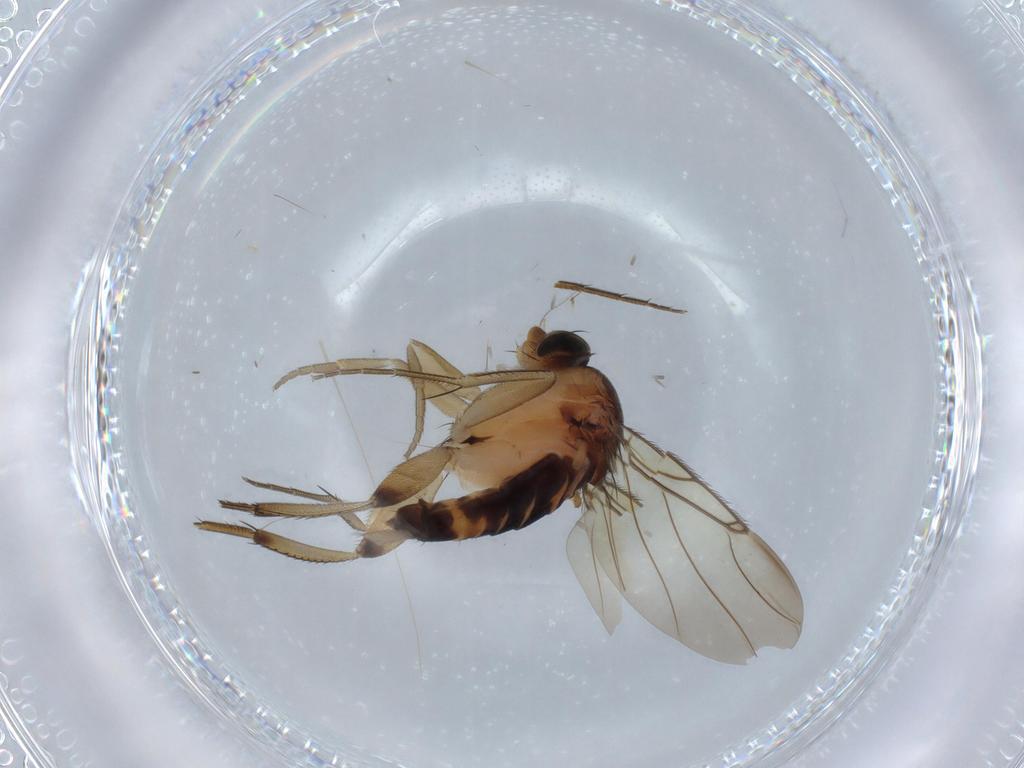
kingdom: Animalia
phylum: Arthropoda
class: Insecta
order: Diptera
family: Phoridae
